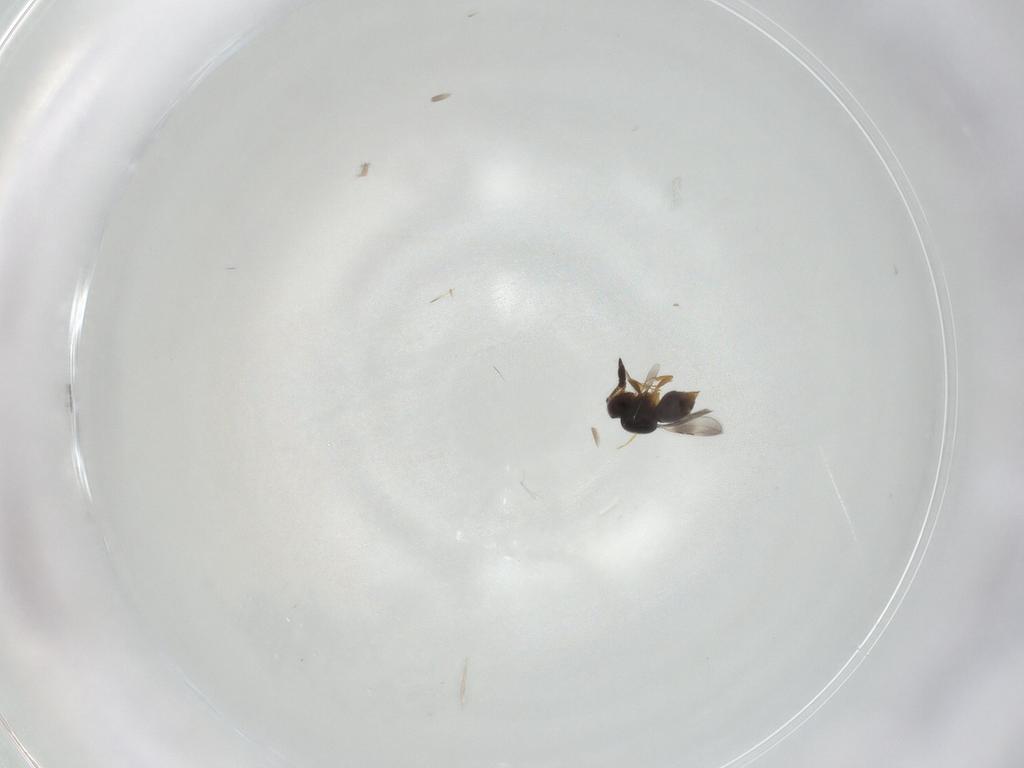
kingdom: Animalia
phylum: Arthropoda
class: Insecta
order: Hymenoptera
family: Bethylidae
